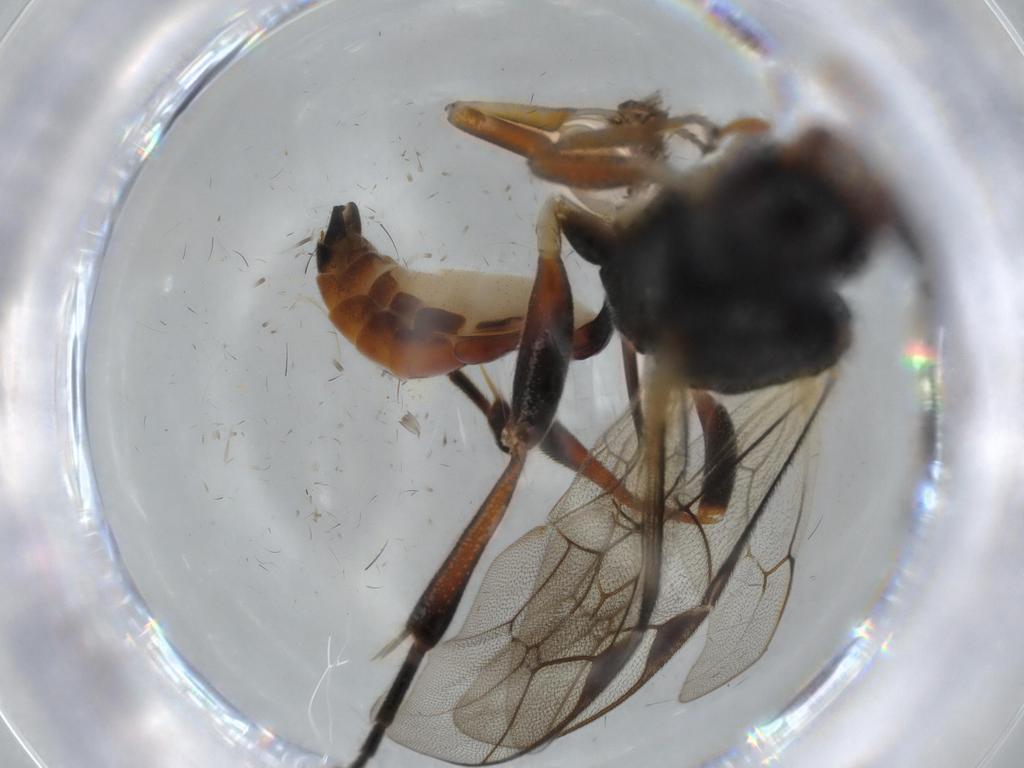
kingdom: Animalia
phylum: Arthropoda
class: Insecta
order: Hymenoptera
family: Ichneumonidae
